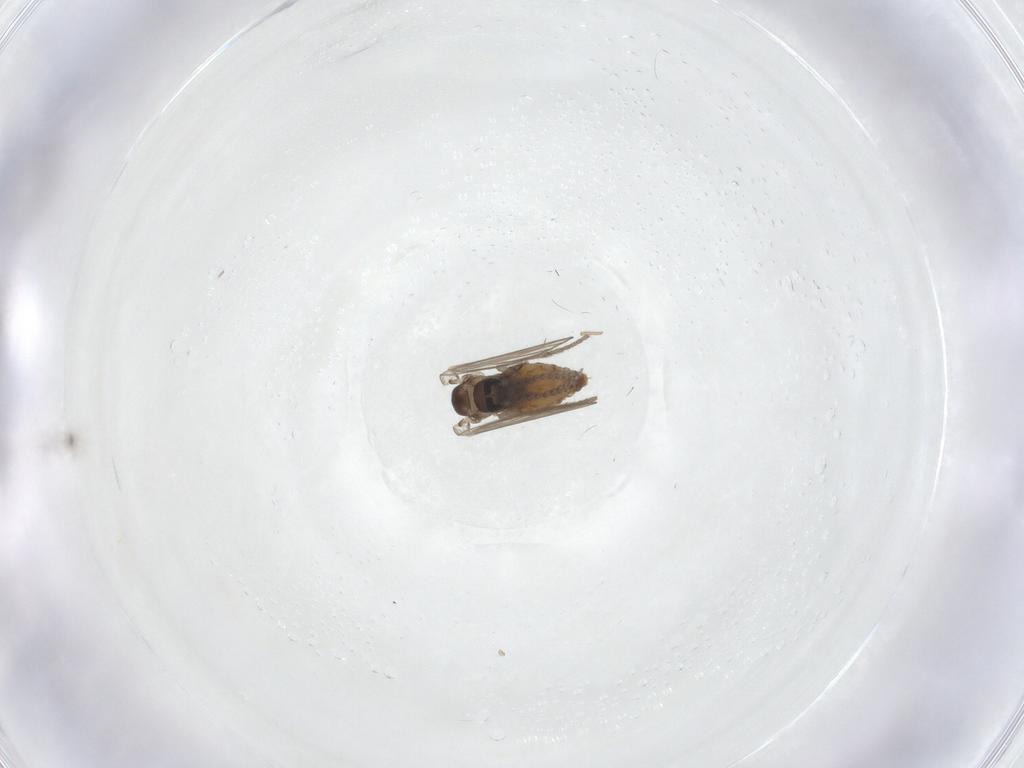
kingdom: Animalia
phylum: Arthropoda
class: Insecta
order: Diptera
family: Psychodidae
